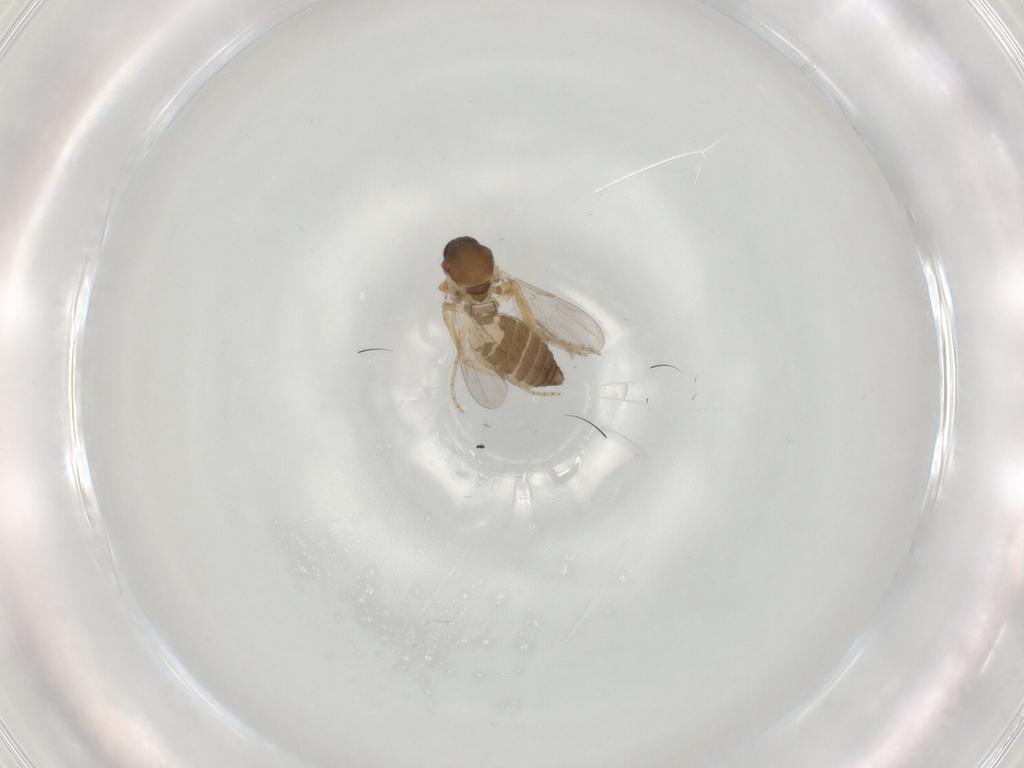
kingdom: Animalia
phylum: Arthropoda
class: Insecta
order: Diptera
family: Ceratopogonidae
